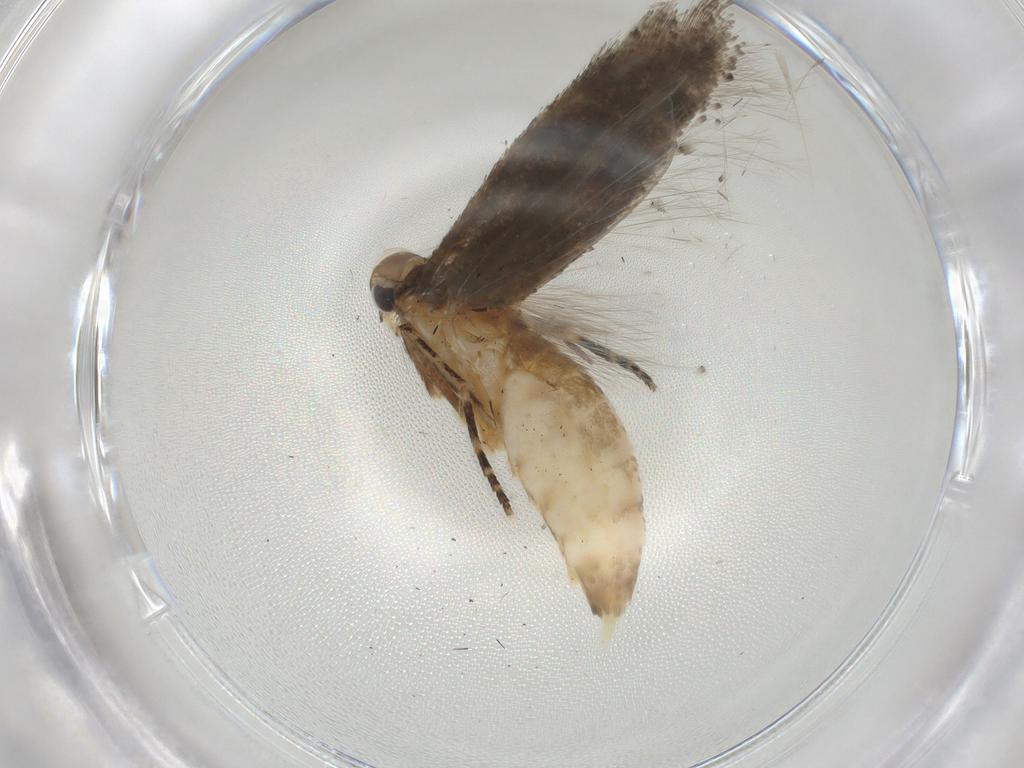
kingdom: Animalia
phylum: Arthropoda
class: Insecta
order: Lepidoptera
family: Gelechiidae
